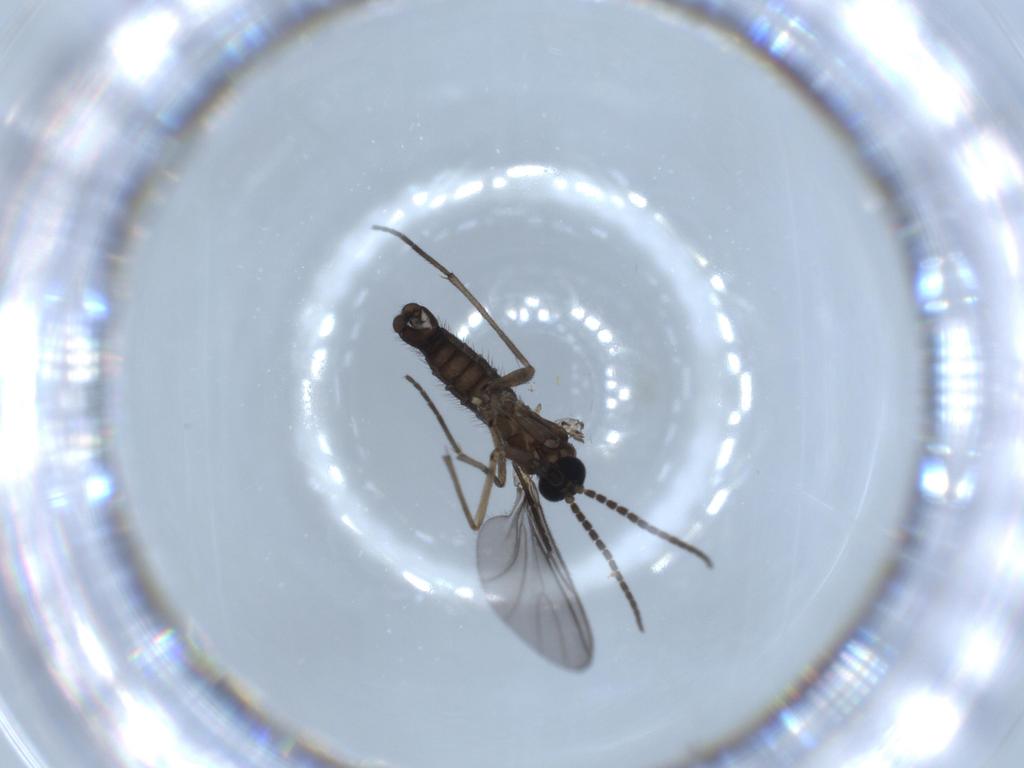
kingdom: Animalia
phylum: Arthropoda
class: Insecta
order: Diptera
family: Sciaridae
